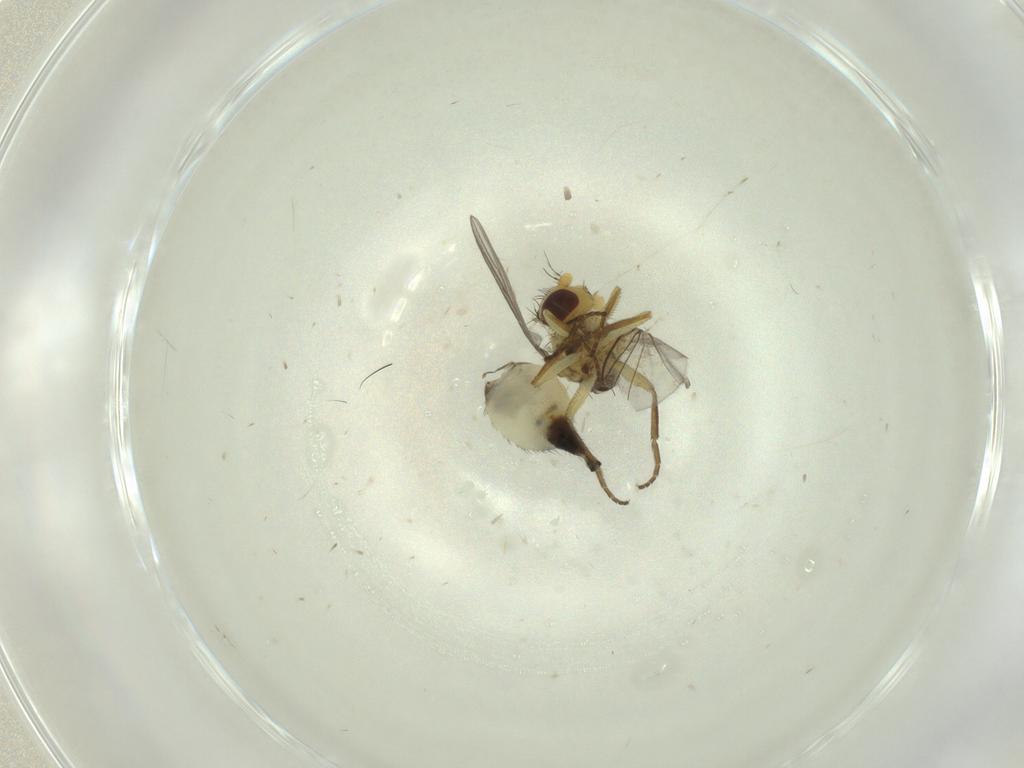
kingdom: Animalia
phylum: Arthropoda
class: Insecta
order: Diptera
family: Agromyzidae
